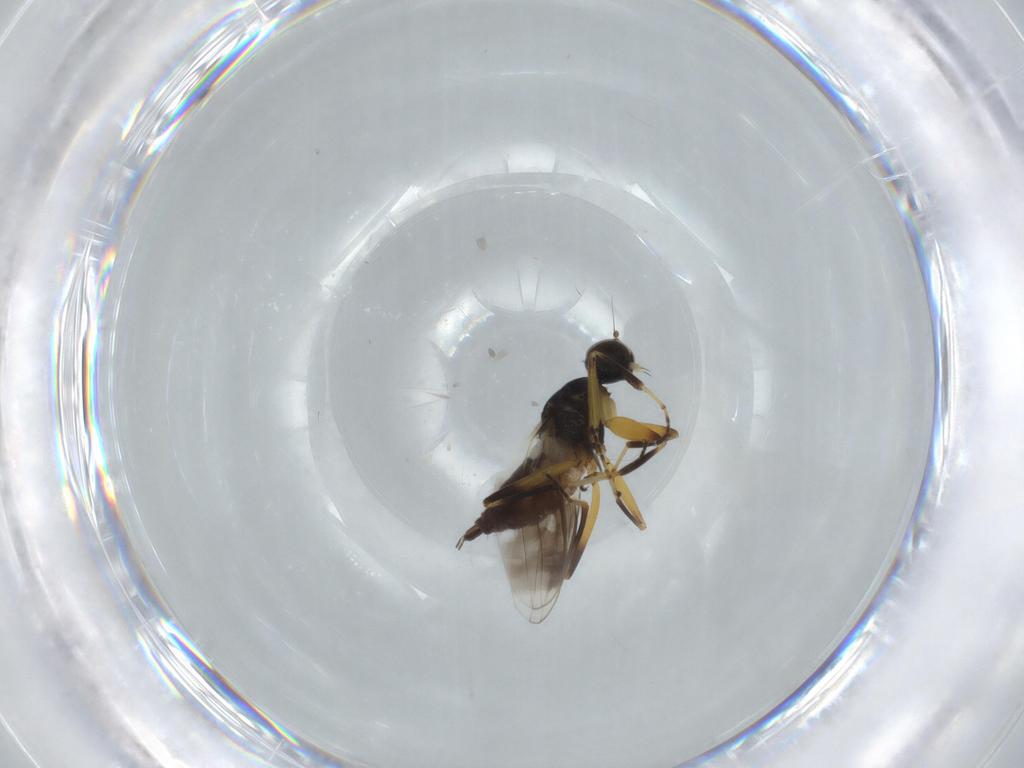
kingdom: Animalia
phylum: Arthropoda
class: Insecta
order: Diptera
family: Hybotidae
